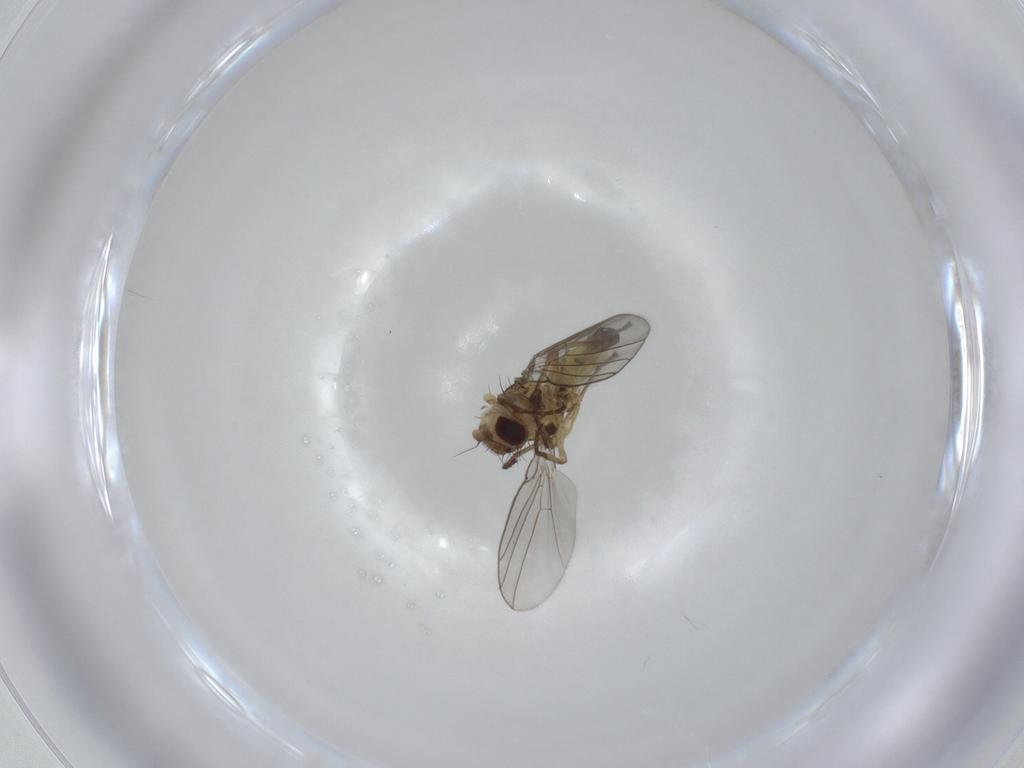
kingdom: Animalia
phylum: Arthropoda
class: Insecta
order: Diptera
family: Agromyzidae
